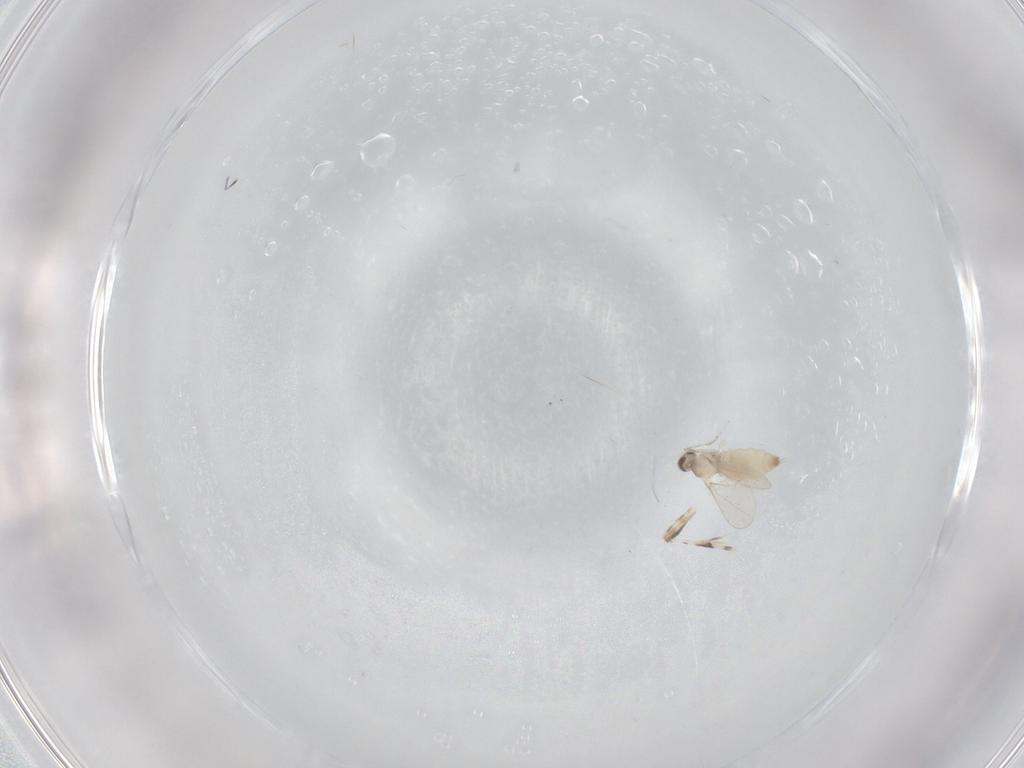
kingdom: Animalia
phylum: Arthropoda
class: Insecta
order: Diptera
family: Cecidomyiidae
